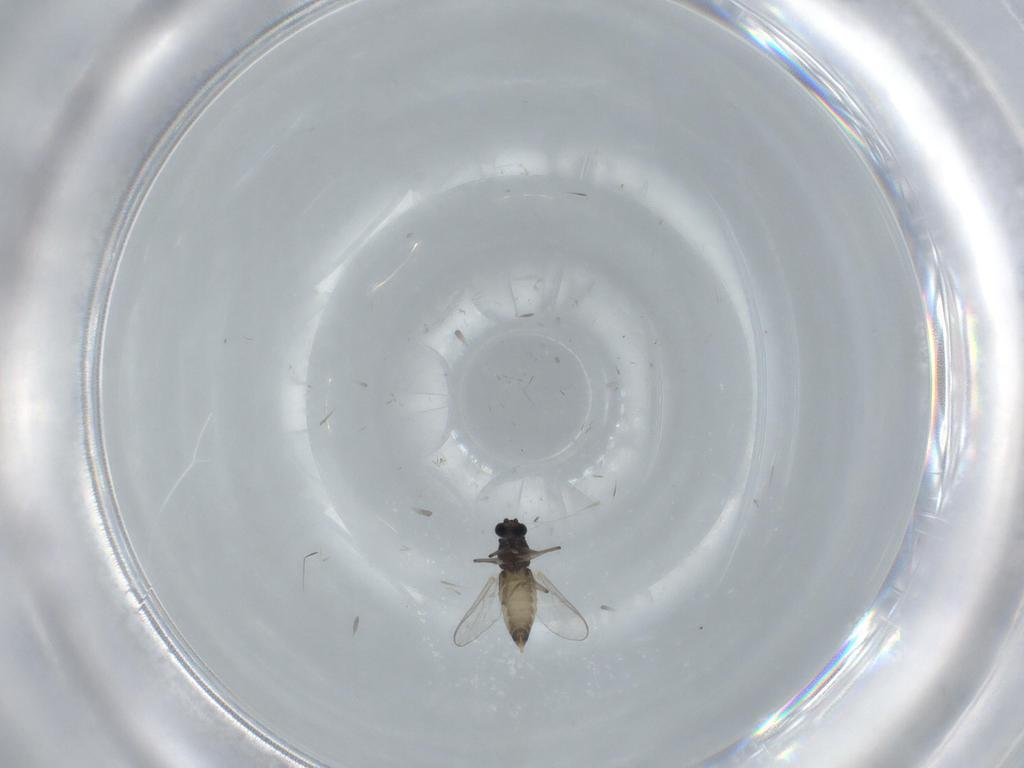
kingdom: Animalia
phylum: Arthropoda
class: Insecta
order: Diptera
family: Cecidomyiidae
